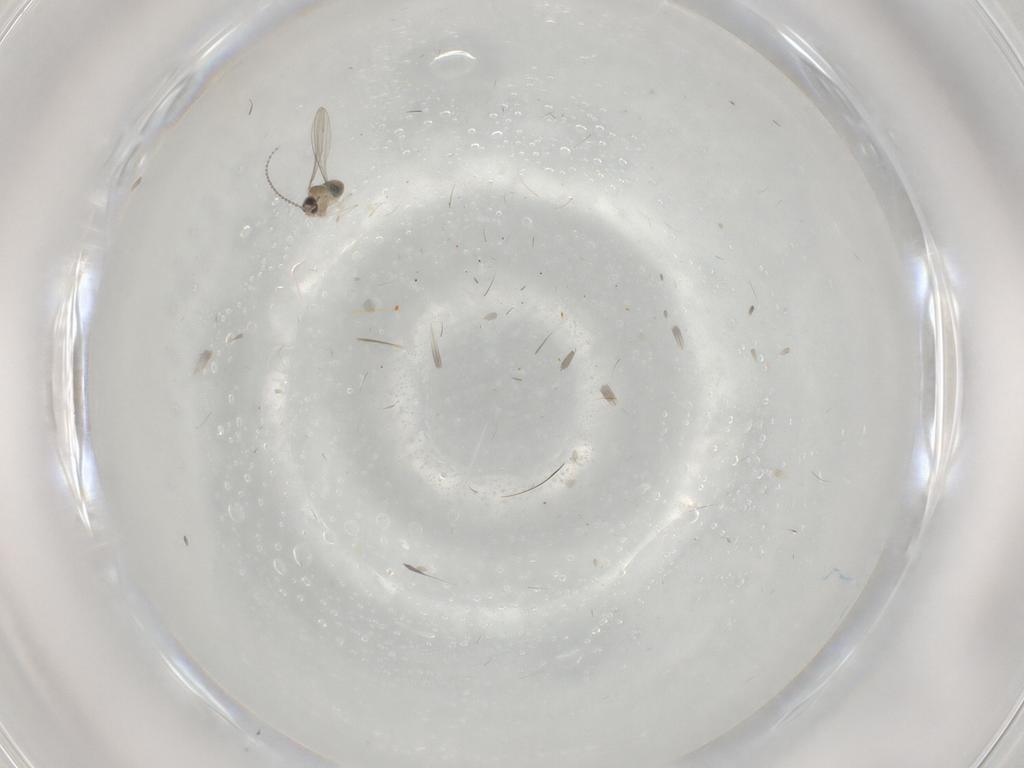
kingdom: Animalia
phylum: Arthropoda
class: Insecta
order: Diptera
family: Cecidomyiidae
